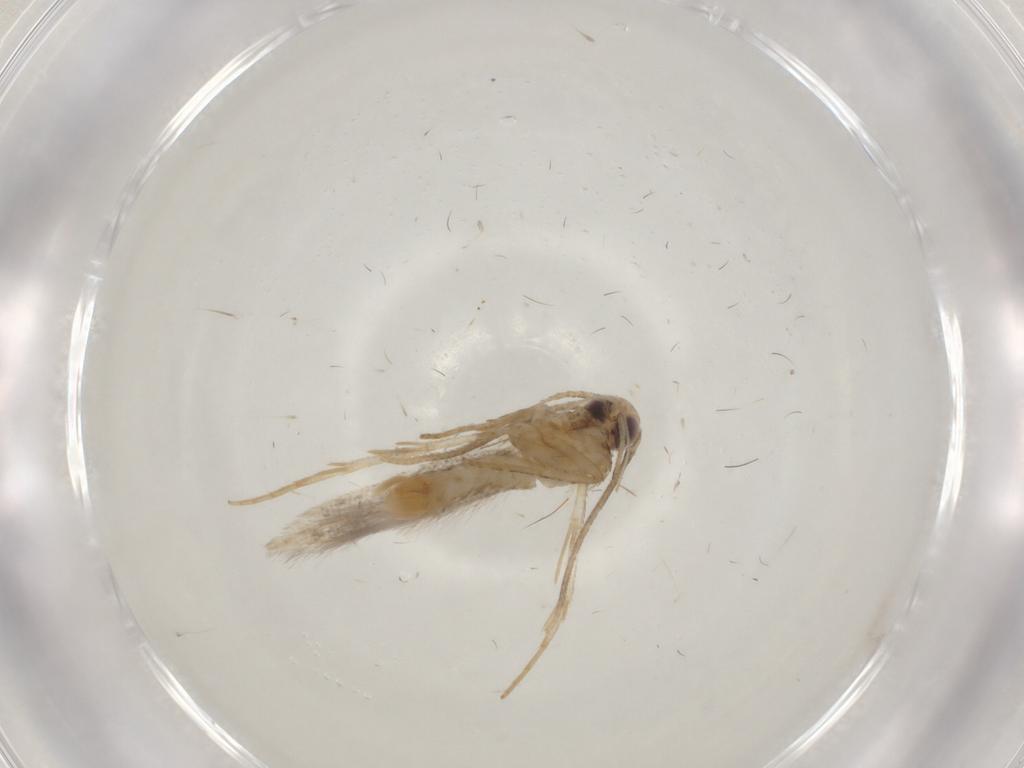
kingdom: Animalia
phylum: Arthropoda
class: Insecta
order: Lepidoptera
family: Cosmopterigidae
